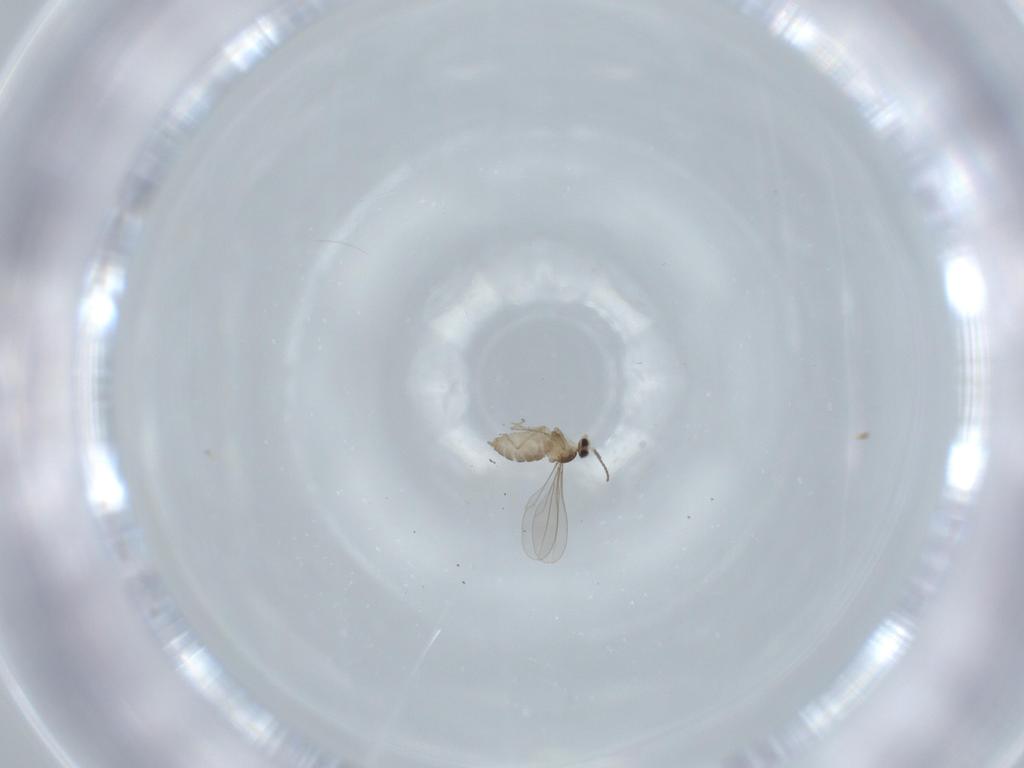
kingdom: Animalia
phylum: Arthropoda
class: Insecta
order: Diptera
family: Cecidomyiidae
